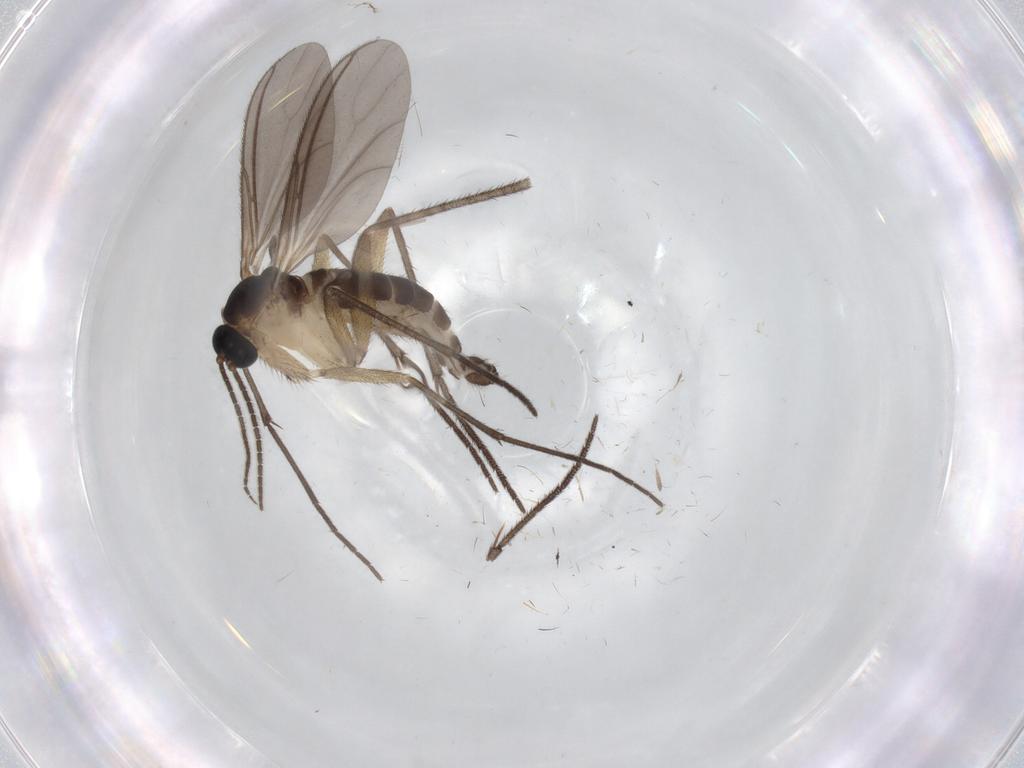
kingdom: Animalia
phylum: Arthropoda
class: Insecta
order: Diptera
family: Sciaridae
